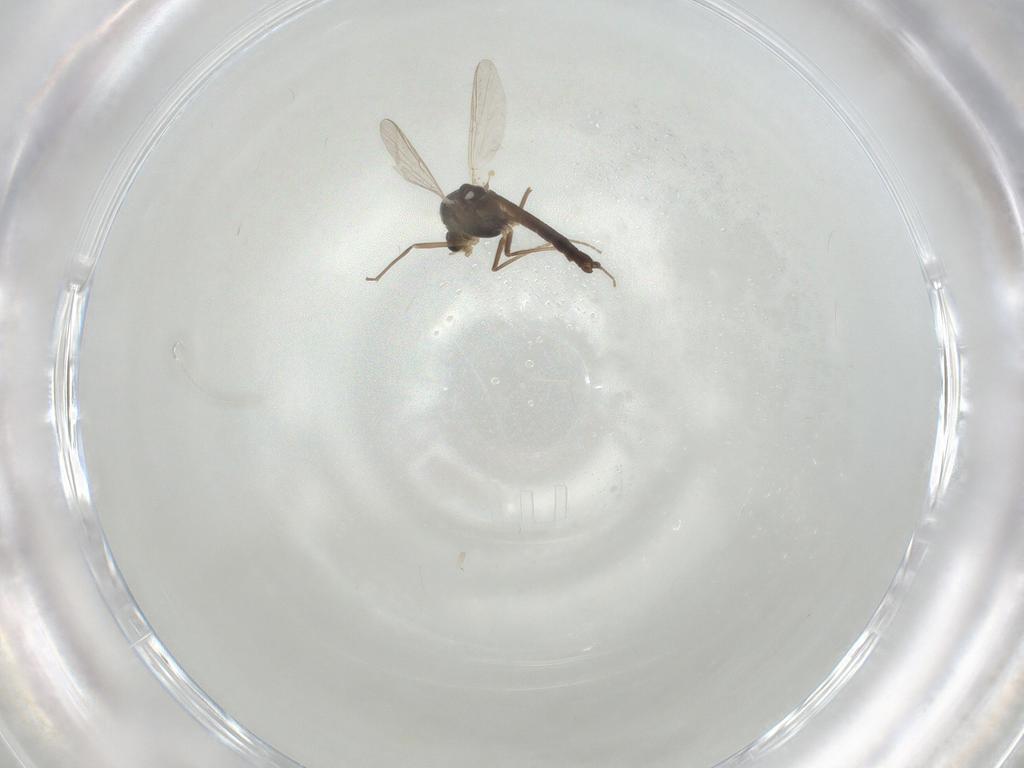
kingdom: Animalia
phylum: Arthropoda
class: Insecta
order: Diptera
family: Chironomidae
